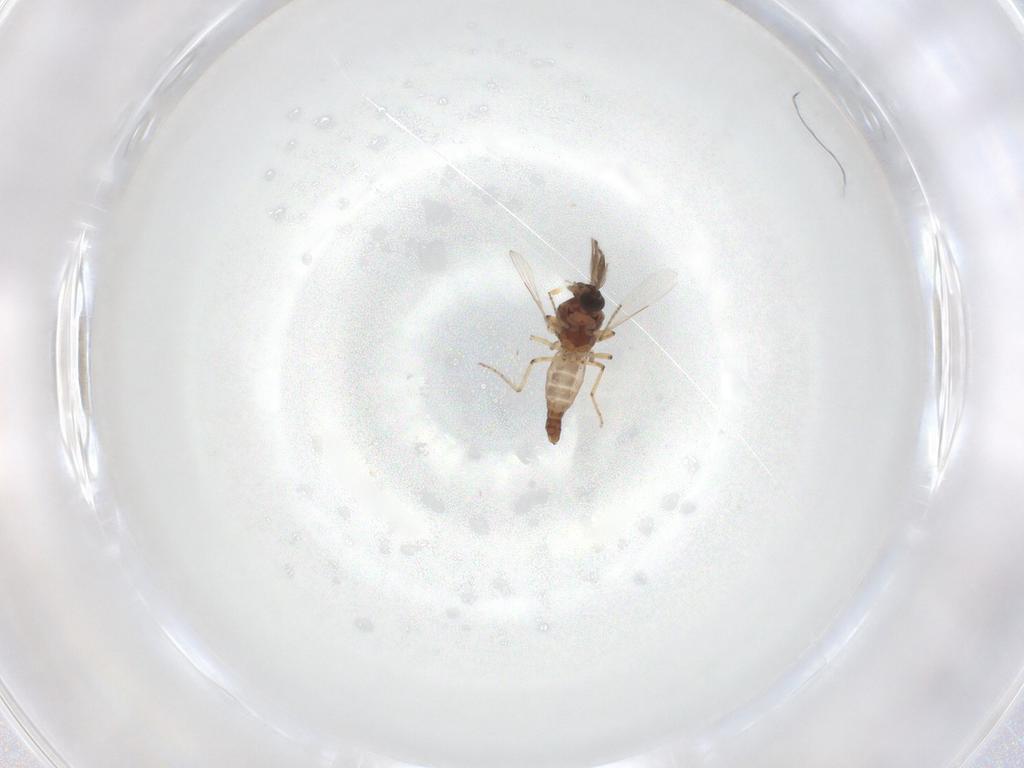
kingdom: Animalia
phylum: Arthropoda
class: Insecta
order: Diptera
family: Ceratopogonidae
